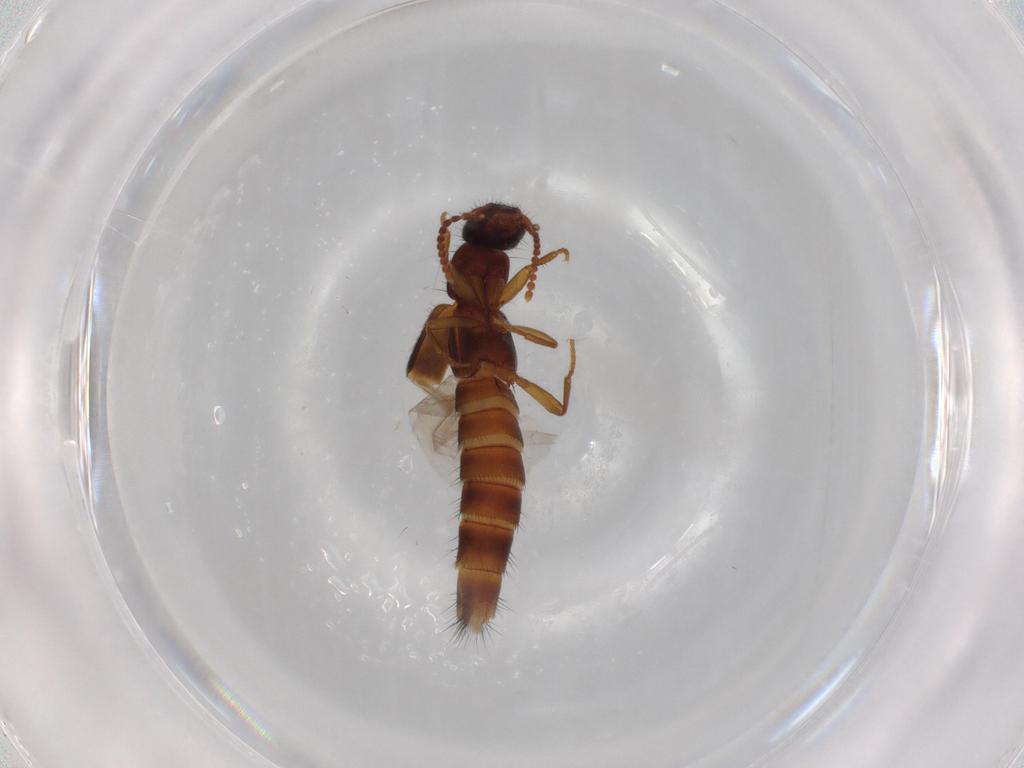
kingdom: Animalia
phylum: Arthropoda
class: Insecta
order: Coleoptera
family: Staphylinidae
